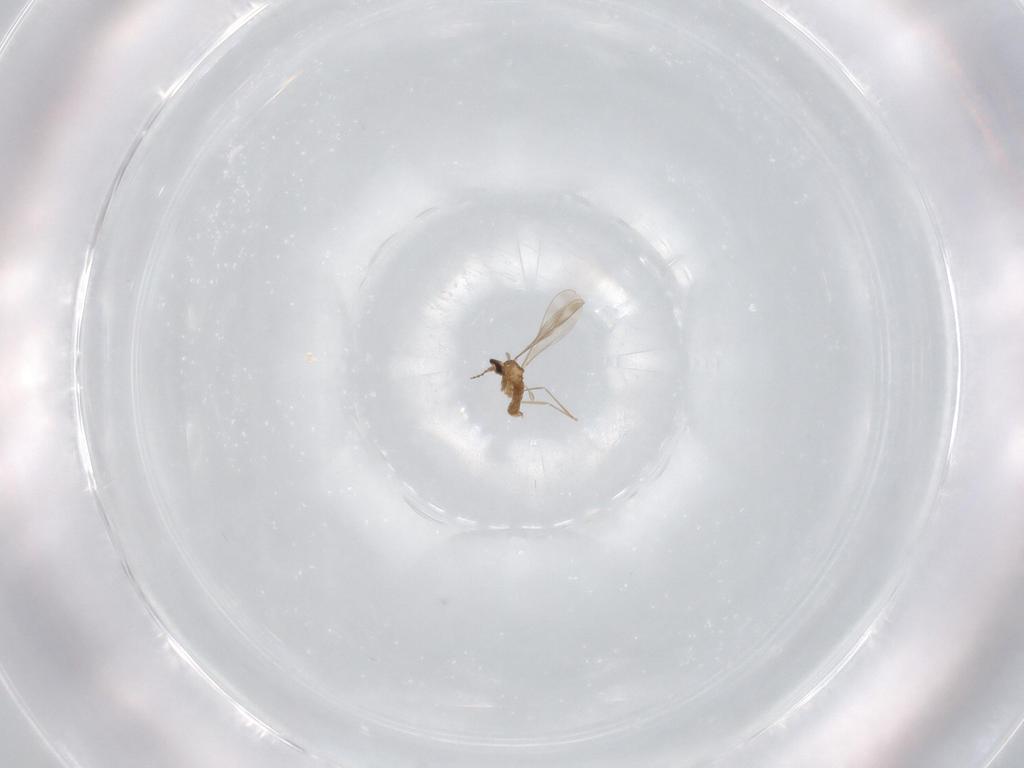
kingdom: Animalia
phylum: Arthropoda
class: Insecta
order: Diptera
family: Cecidomyiidae
